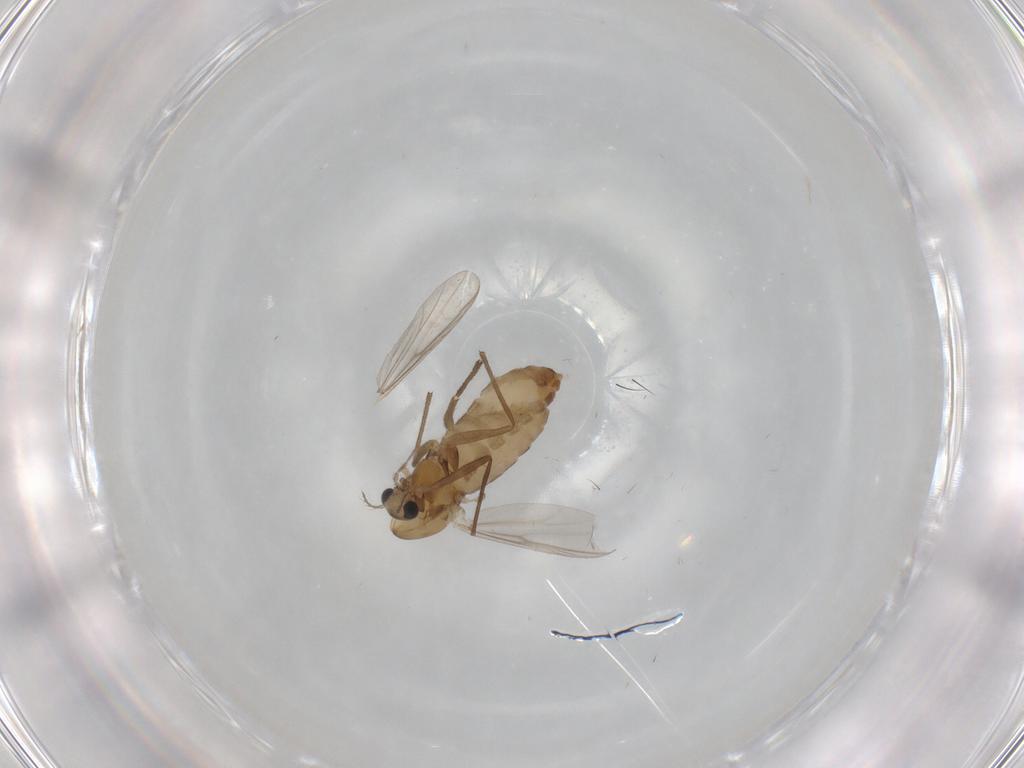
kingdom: Animalia
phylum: Arthropoda
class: Insecta
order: Diptera
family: Chironomidae
